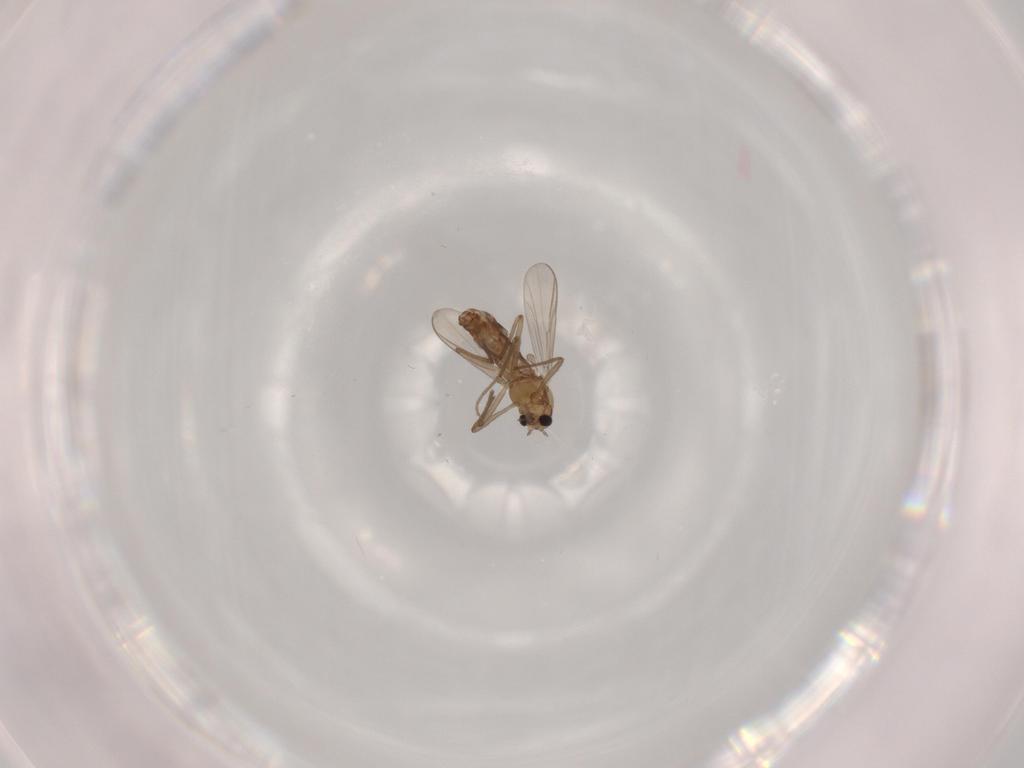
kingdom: Animalia
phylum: Arthropoda
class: Insecta
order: Diptera
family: Chironomidae
